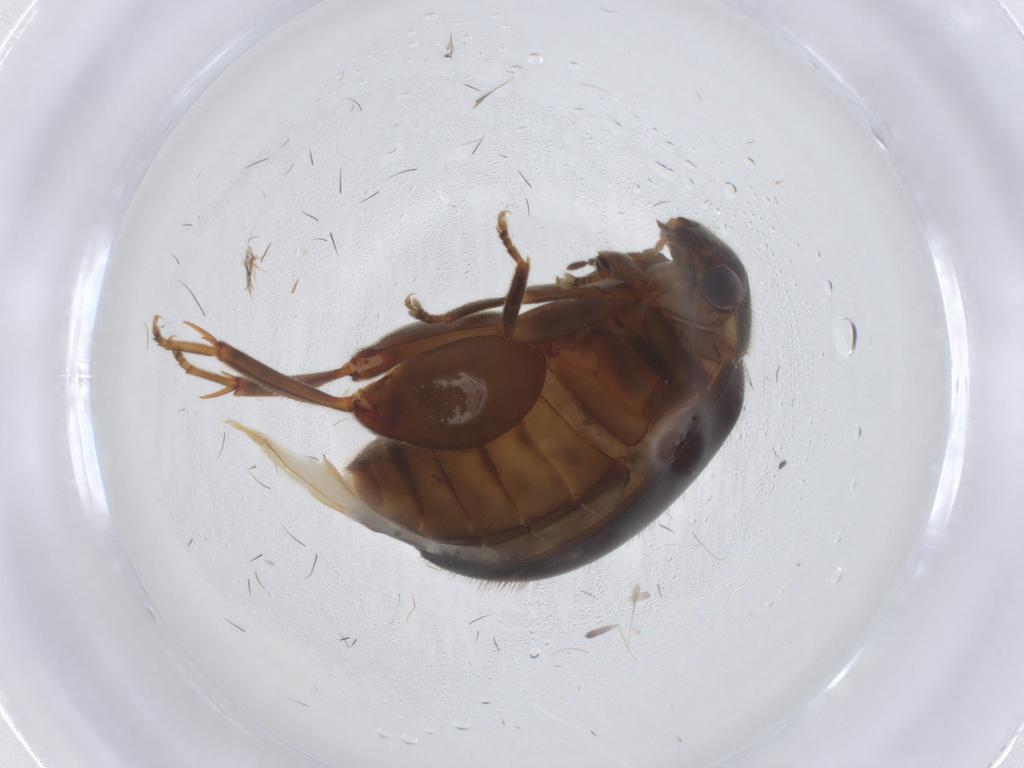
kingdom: Animalia
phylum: Arthropoda
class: Insecta
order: Coleoptera
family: Scirtidae
